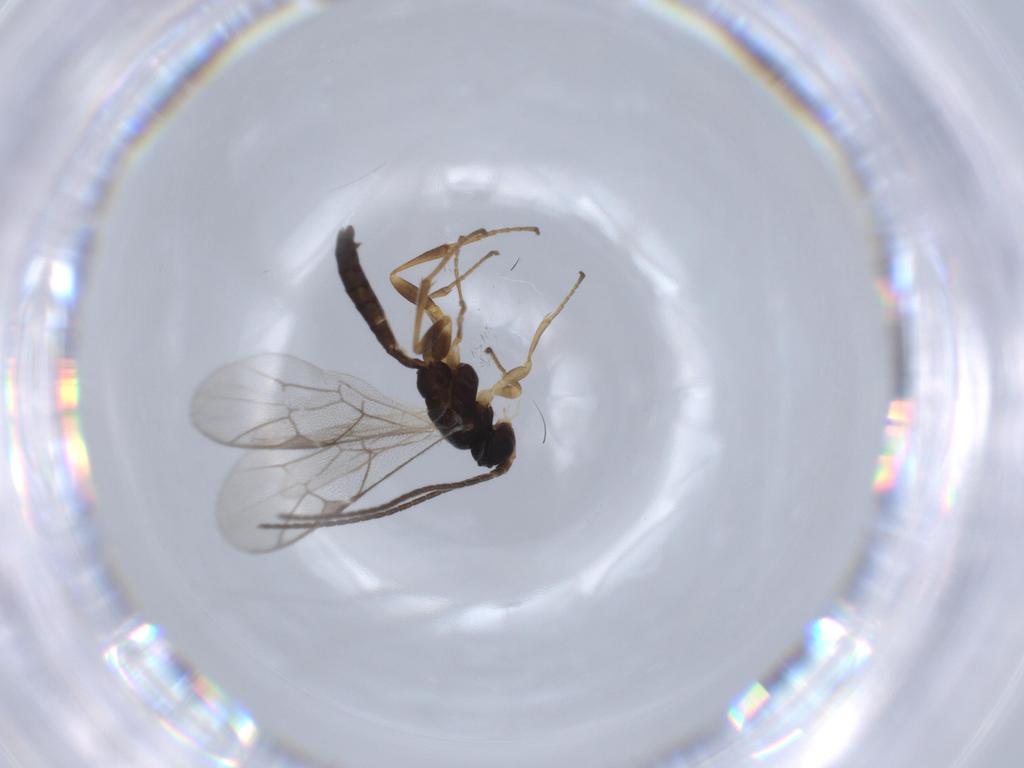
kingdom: Animalia
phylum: Arthropoda
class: Insecta
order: Hymenoptera
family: Ichneumonidae
